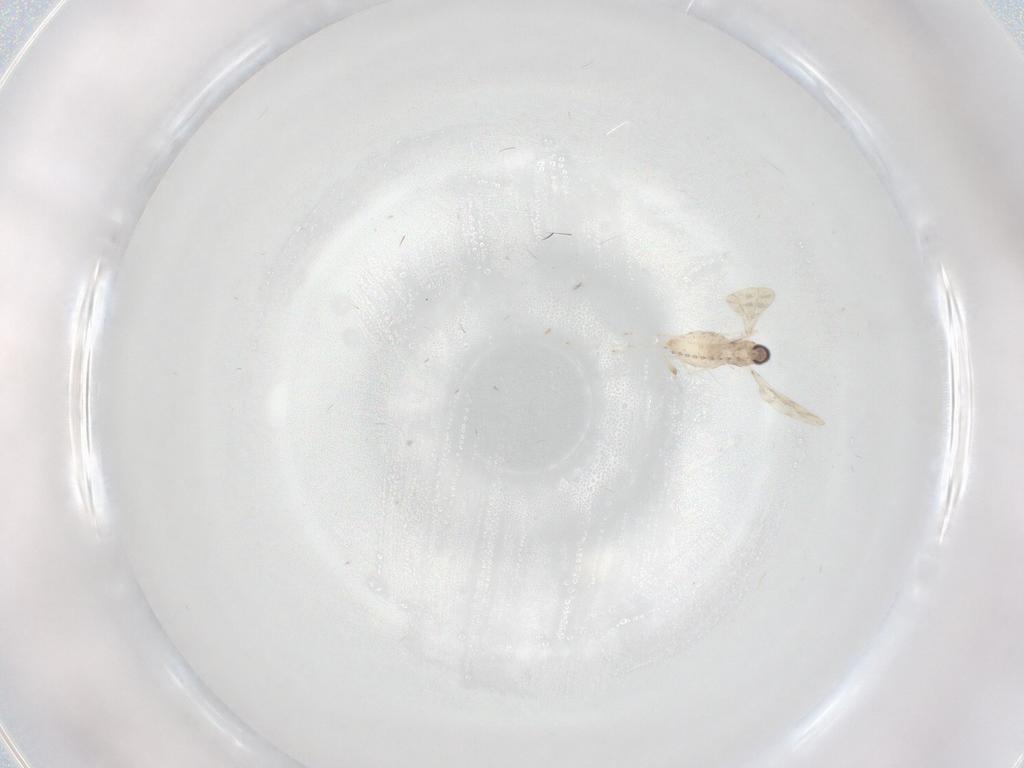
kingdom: Animalia
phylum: Arthropoda
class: Insecta
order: Diptera
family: Cecidomyiidae
